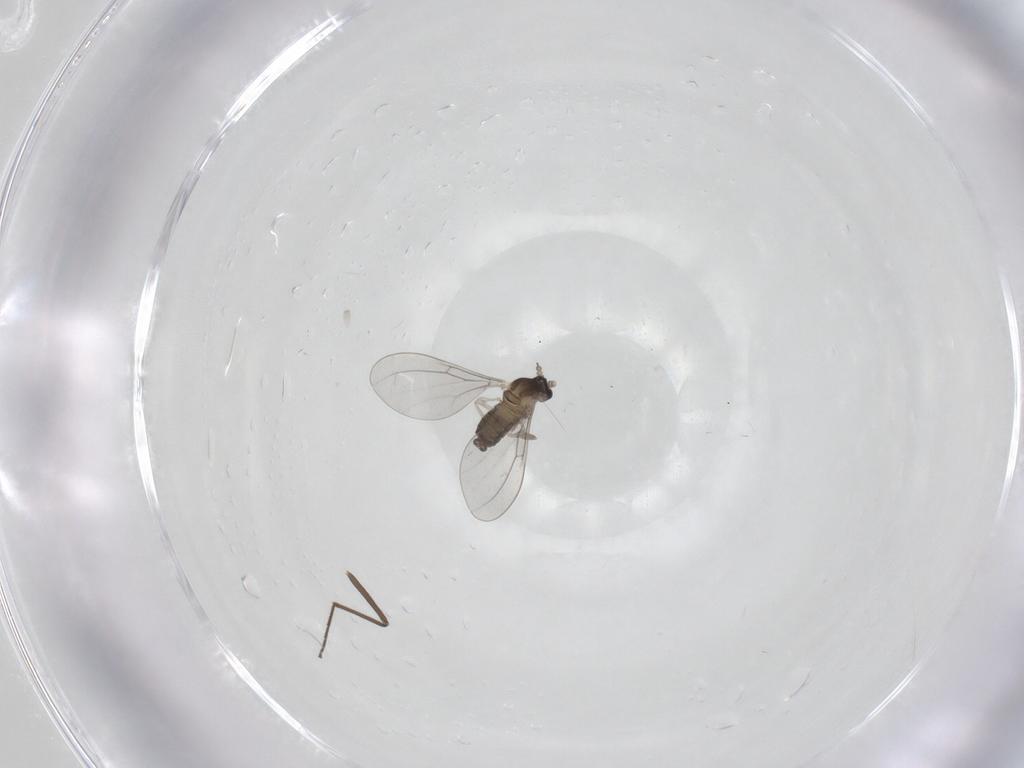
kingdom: Animalia
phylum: Arthropoda
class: Insecta
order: Diptera
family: Cecidomyiidae
